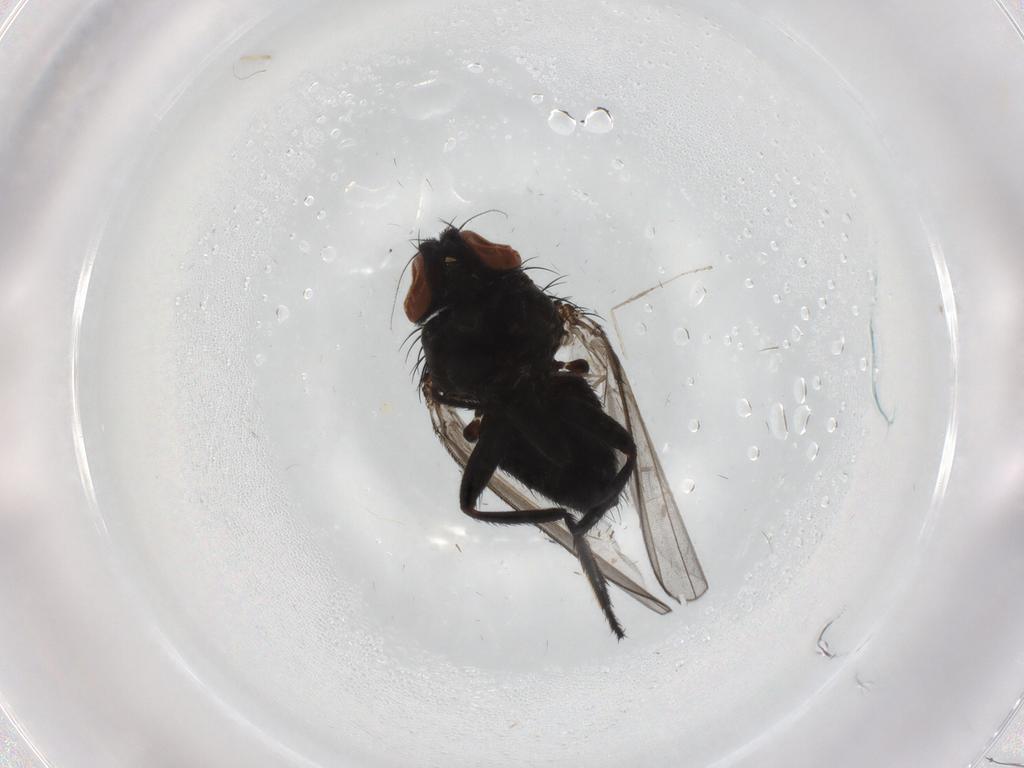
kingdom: Animalia
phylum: Arthropoda
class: Insecta
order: Diptera
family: Milichiidae
